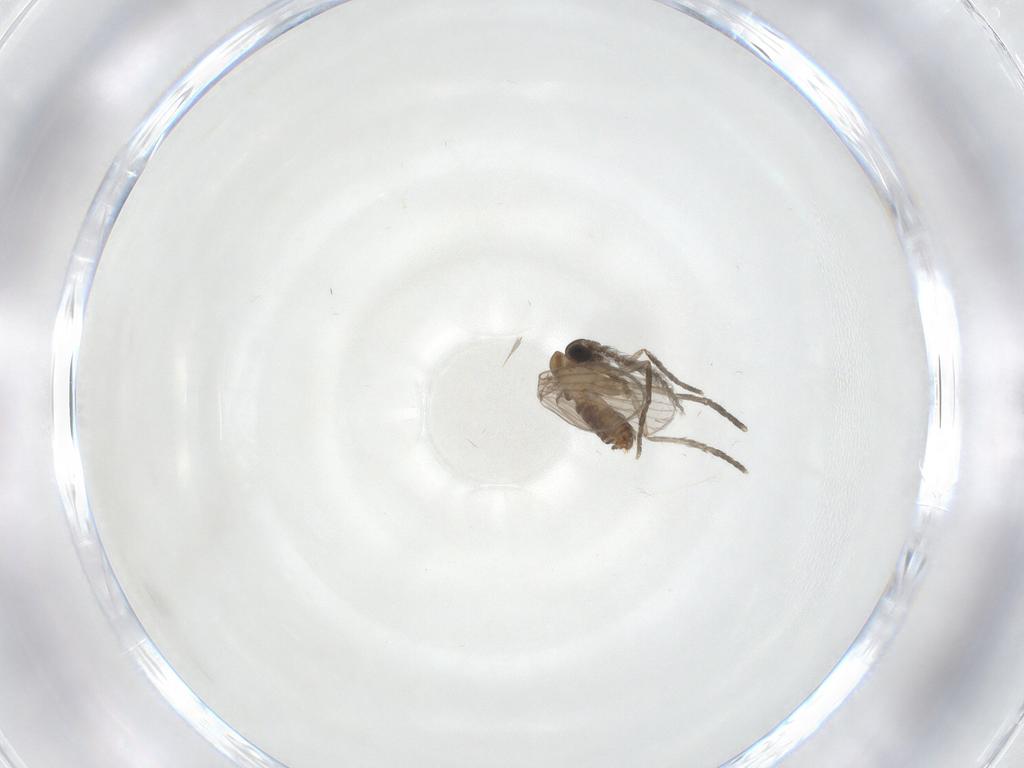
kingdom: Animalia
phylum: Arthropoda
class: Insecta
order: Diptera
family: Psychodidae
